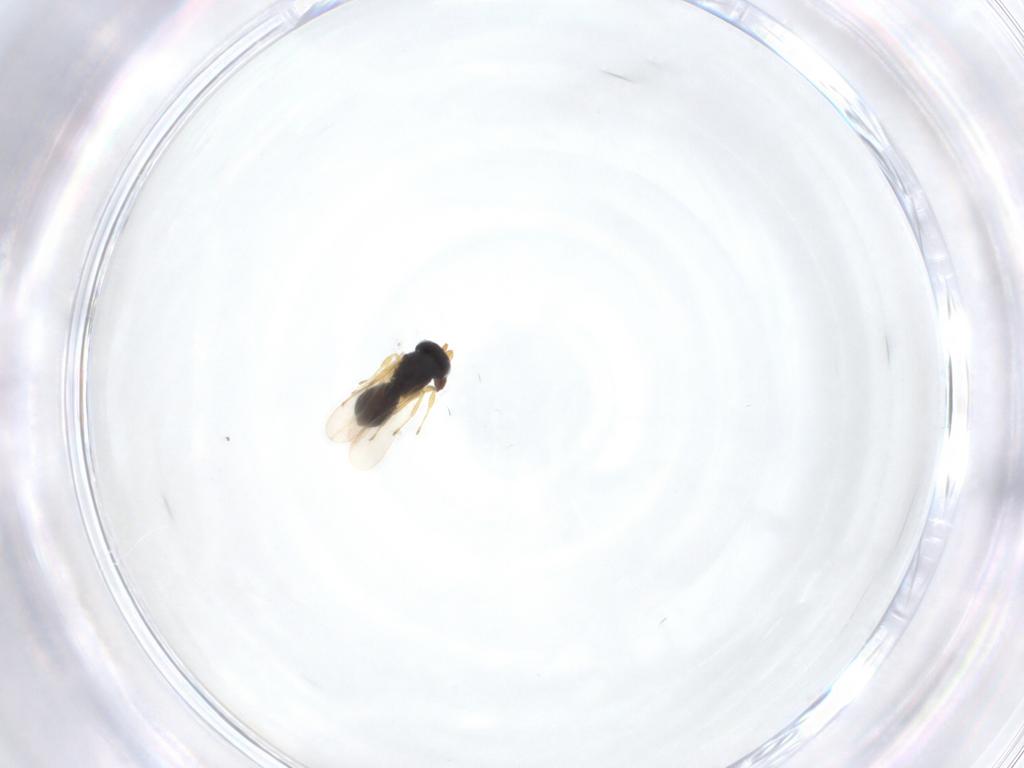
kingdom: Animalia
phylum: Arthropoda
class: Insecta
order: Hymenoptera
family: Scelionidae
